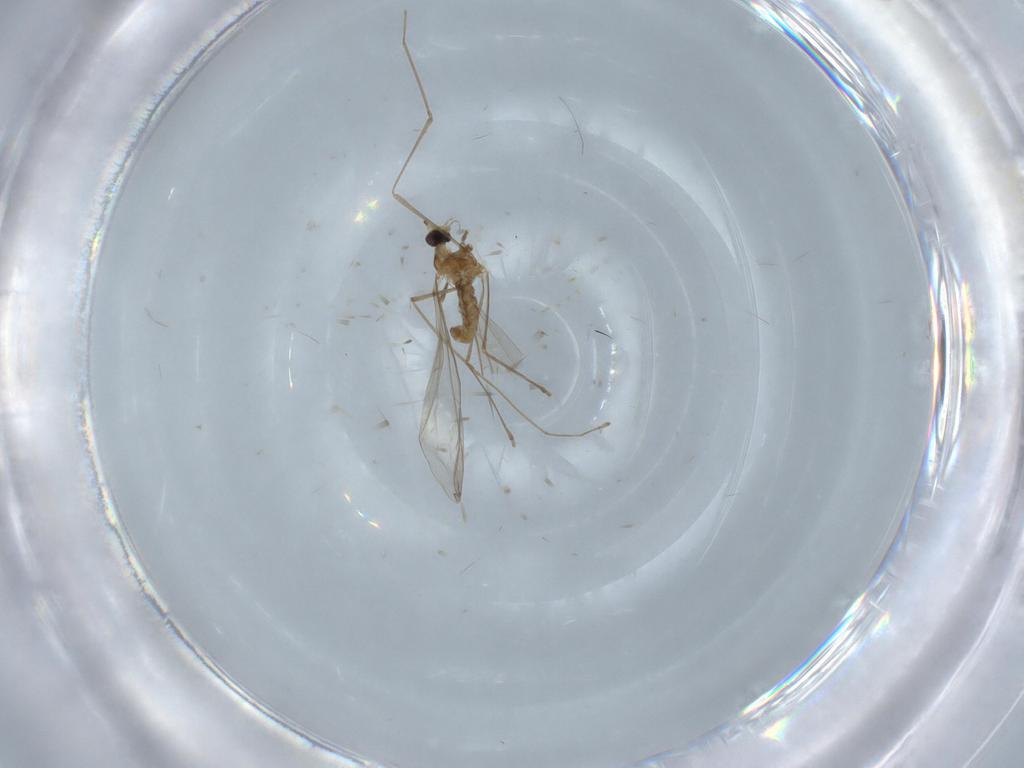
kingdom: Animalia
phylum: Arthropoda
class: Insecta
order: Diptera
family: Cecidomyiidae
